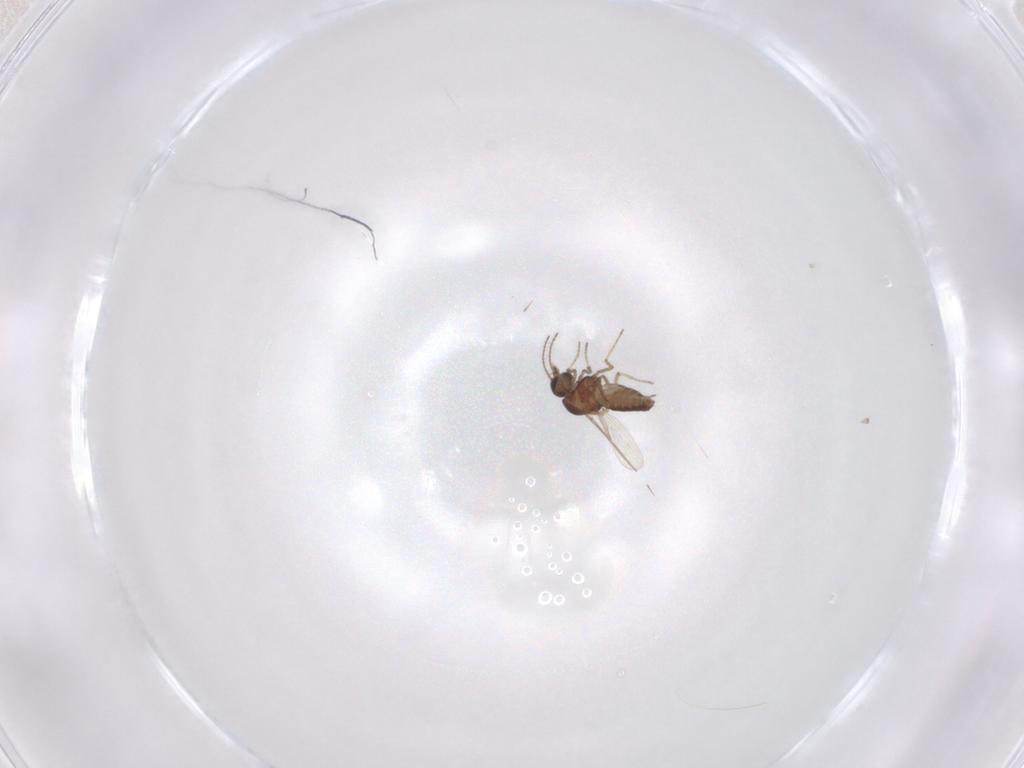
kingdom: Animalia
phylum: Arthropoda
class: Insecta
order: Diptera
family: Ceratopogonidae
